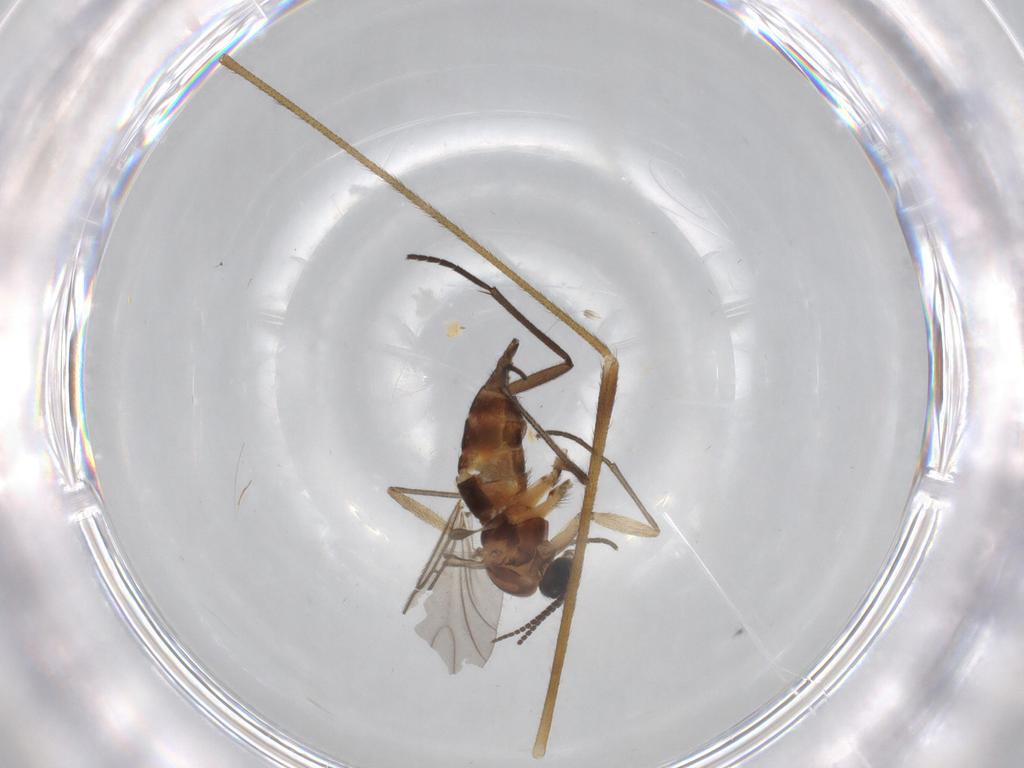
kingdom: Animalia
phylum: Arthropoda
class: Insecta
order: Diptera
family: Sciaridae
